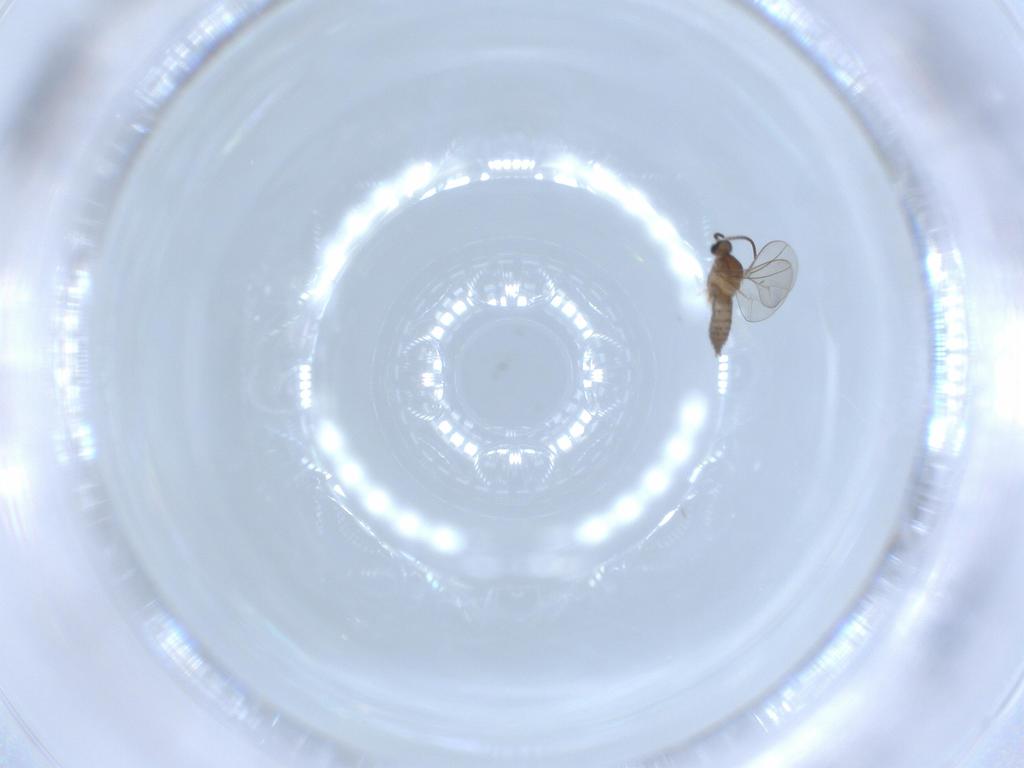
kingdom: Animalia
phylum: Arthropoda
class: Insecta
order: Diptera
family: Cecidomyiidae
